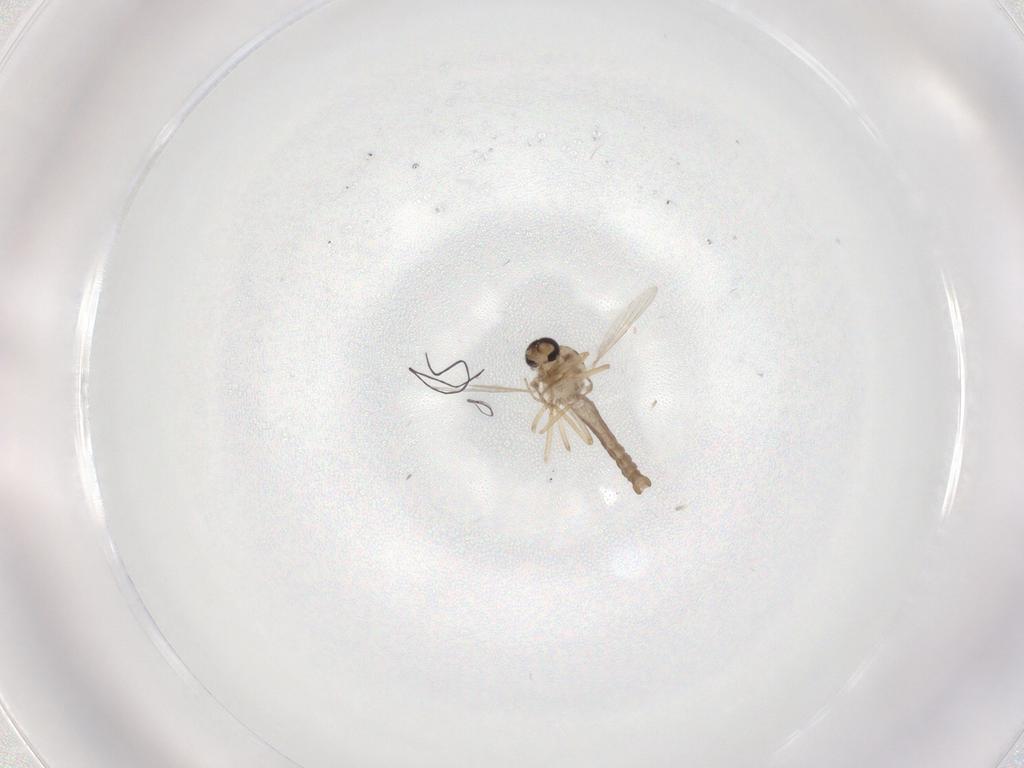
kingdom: Animalia
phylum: Arthropoda
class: Insecta
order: Diptera
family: Ceratopogonidae
